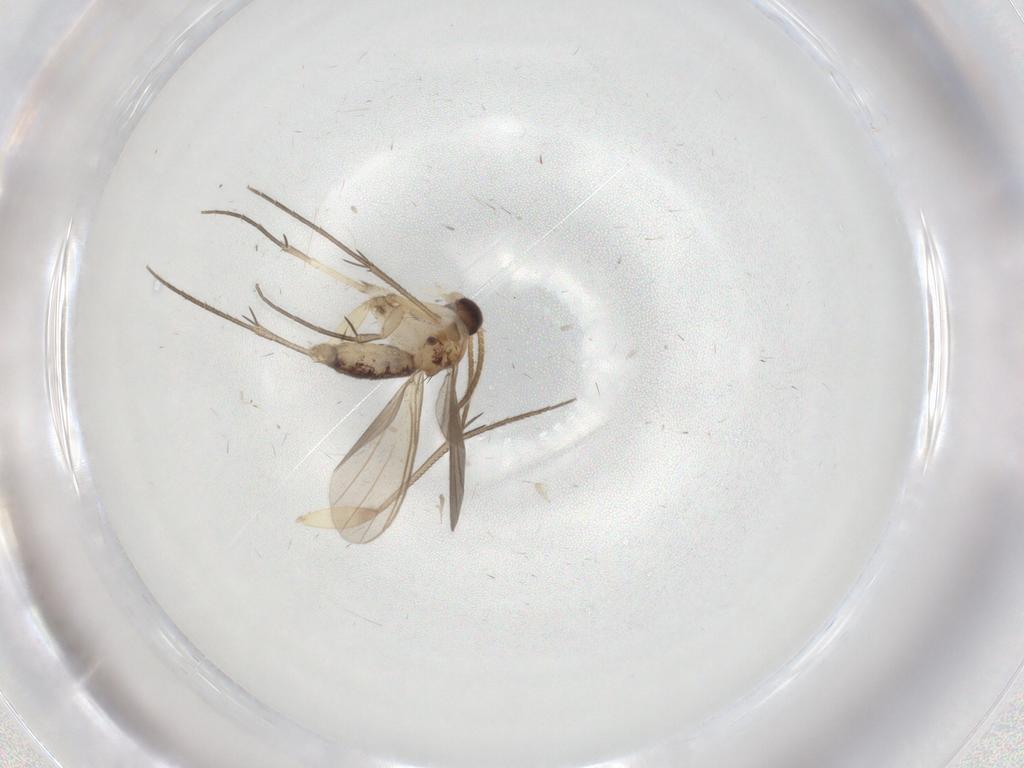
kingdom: Animalia
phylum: Arthropoda
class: Insecta
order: Diptera
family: Mycetophilidae
